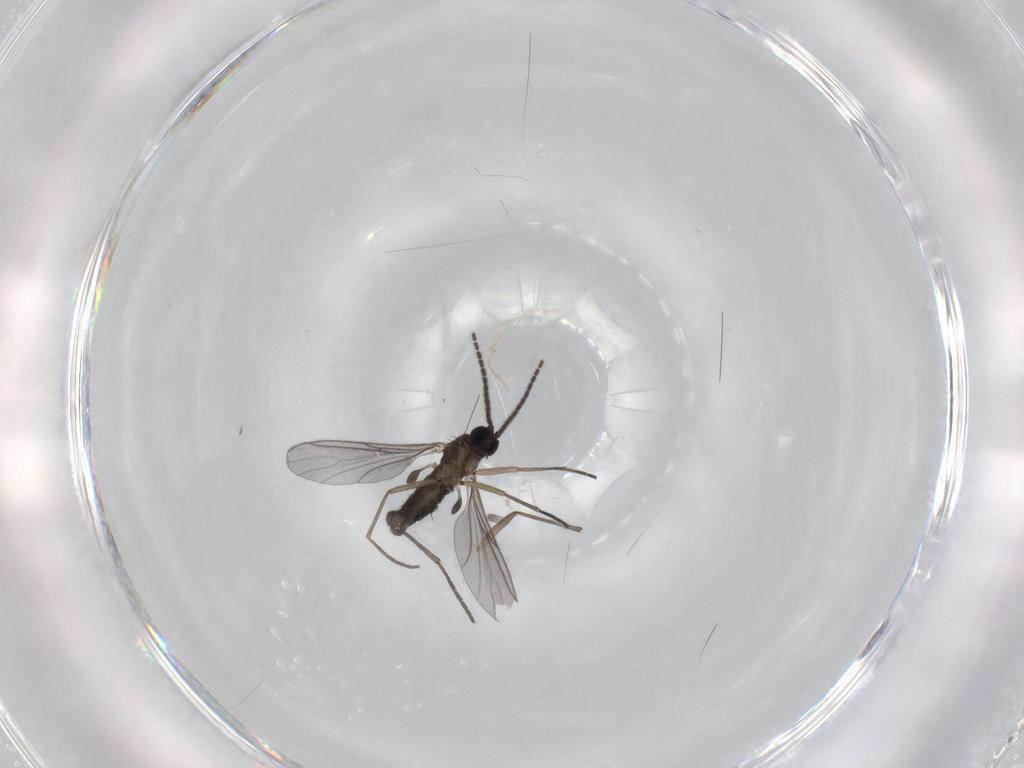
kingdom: Animalia
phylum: Arthropoda
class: Insecta
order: Diptera
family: Sciaridae
